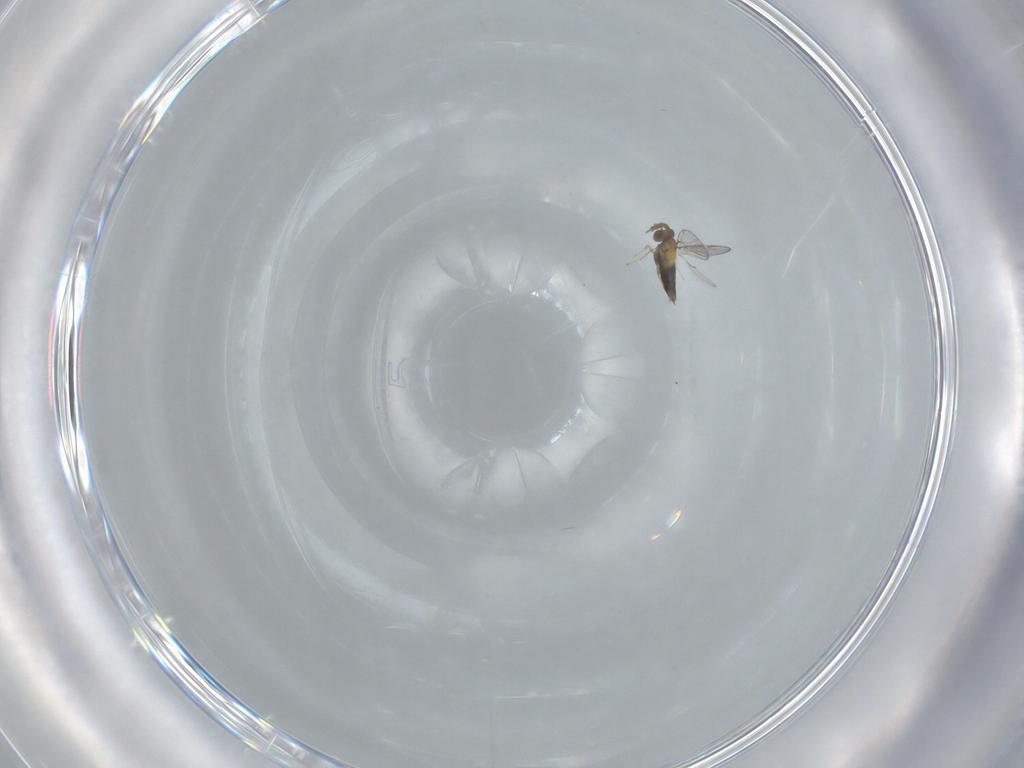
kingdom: Animalia
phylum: Arthropoda
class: Insecta
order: Hymenoptera
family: Trichogrammatidae
